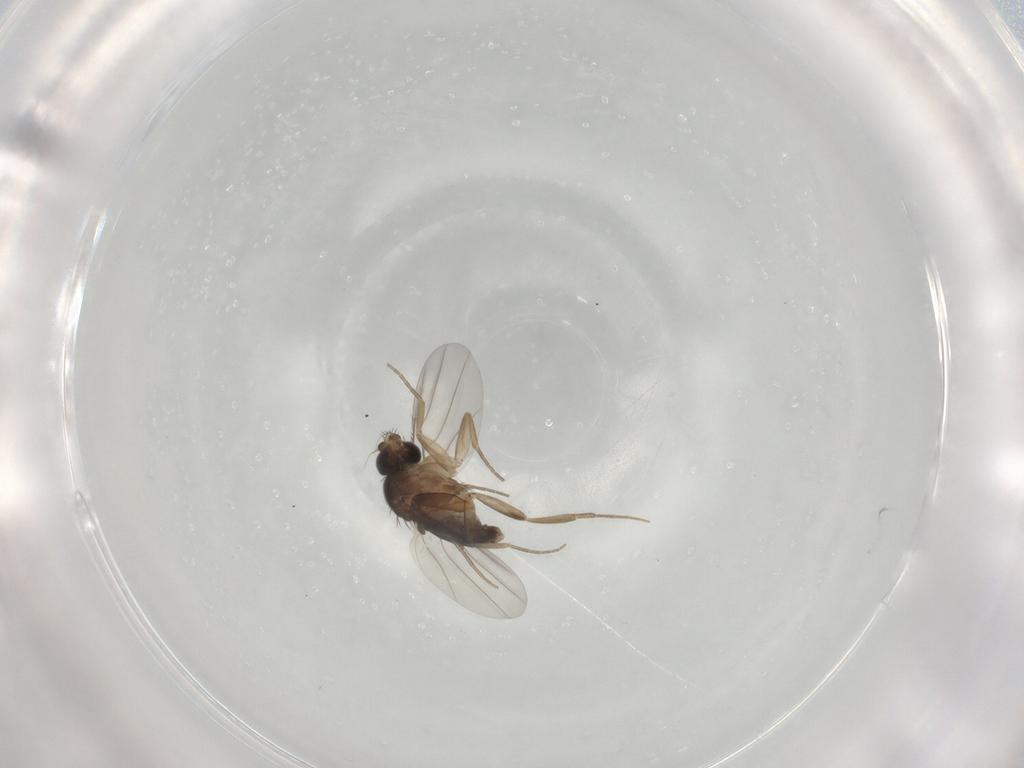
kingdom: Animalia
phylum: Arthropoda
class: Insecta
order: Diptera
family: Phoridae
